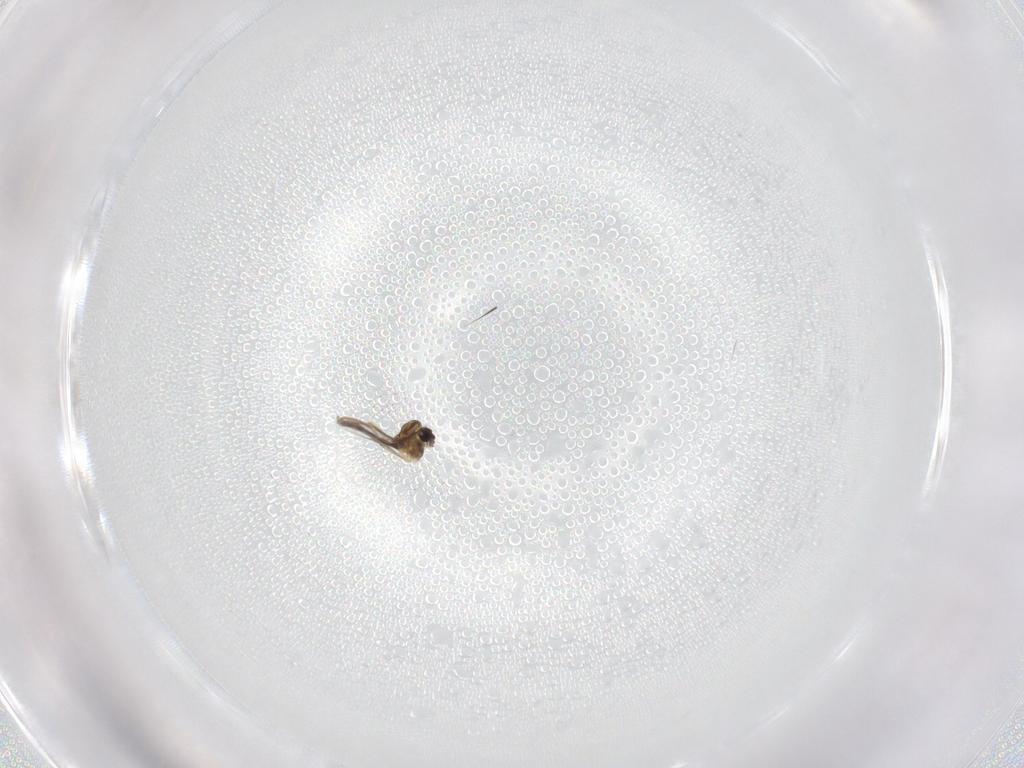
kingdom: Animalia
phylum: Arthropoda
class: Insecta
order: Diptera
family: Chironomidae
